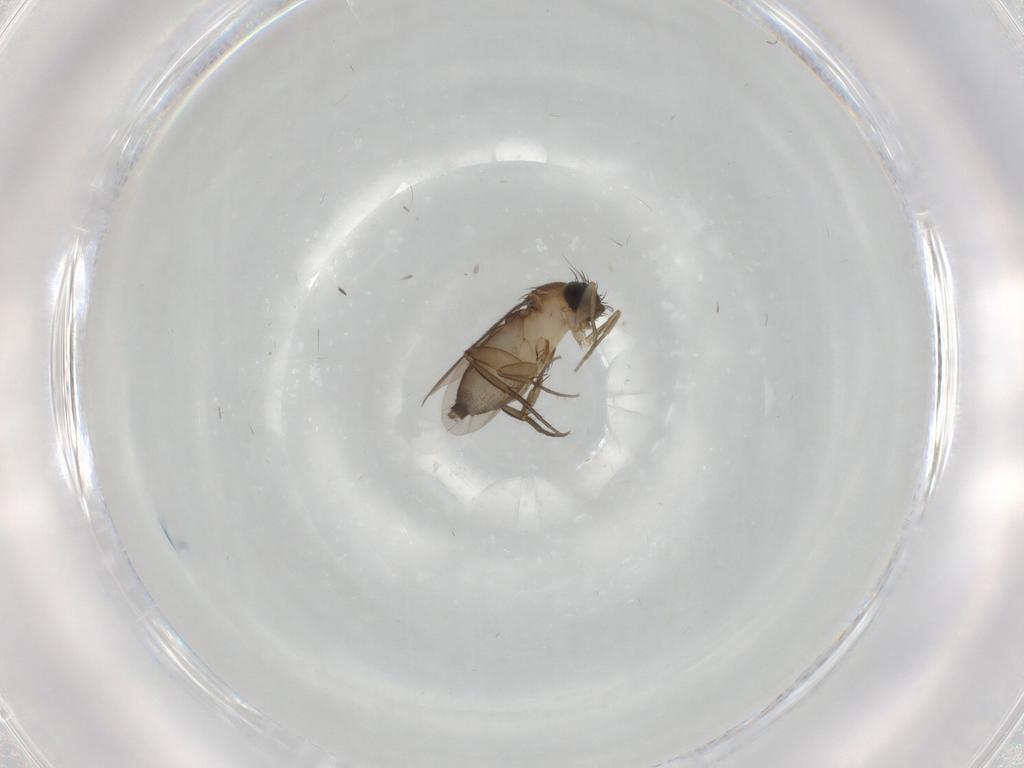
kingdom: Animalia
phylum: Arthropoda
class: Insecta
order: Diptera
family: Phoridae
